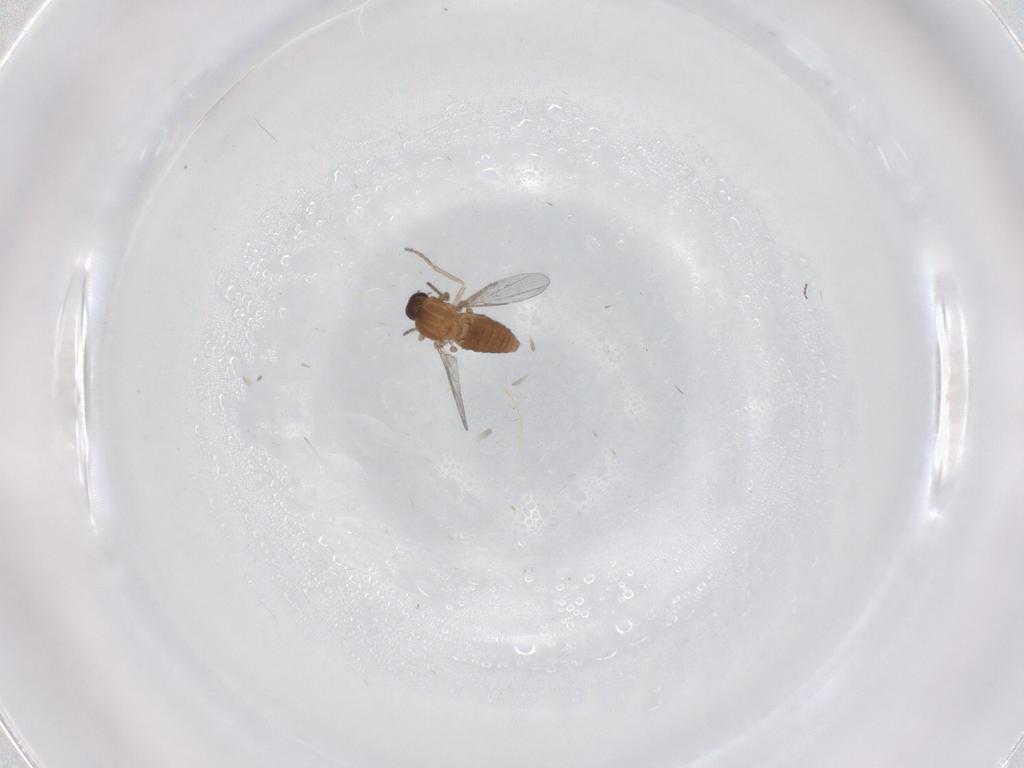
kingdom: Animalia
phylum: Arthropoda
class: Insecta
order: Diptera
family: Ceratopogonidae
